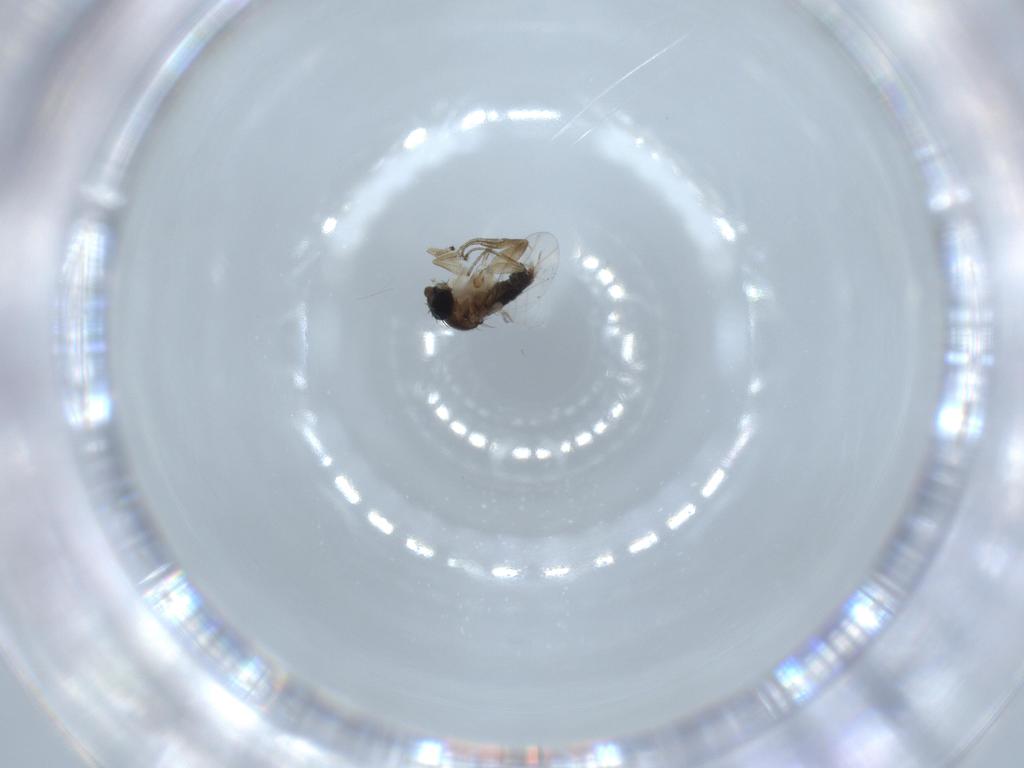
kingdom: Animalia
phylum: Arthropoda
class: Insecta
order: Diptera
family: Phoridae
